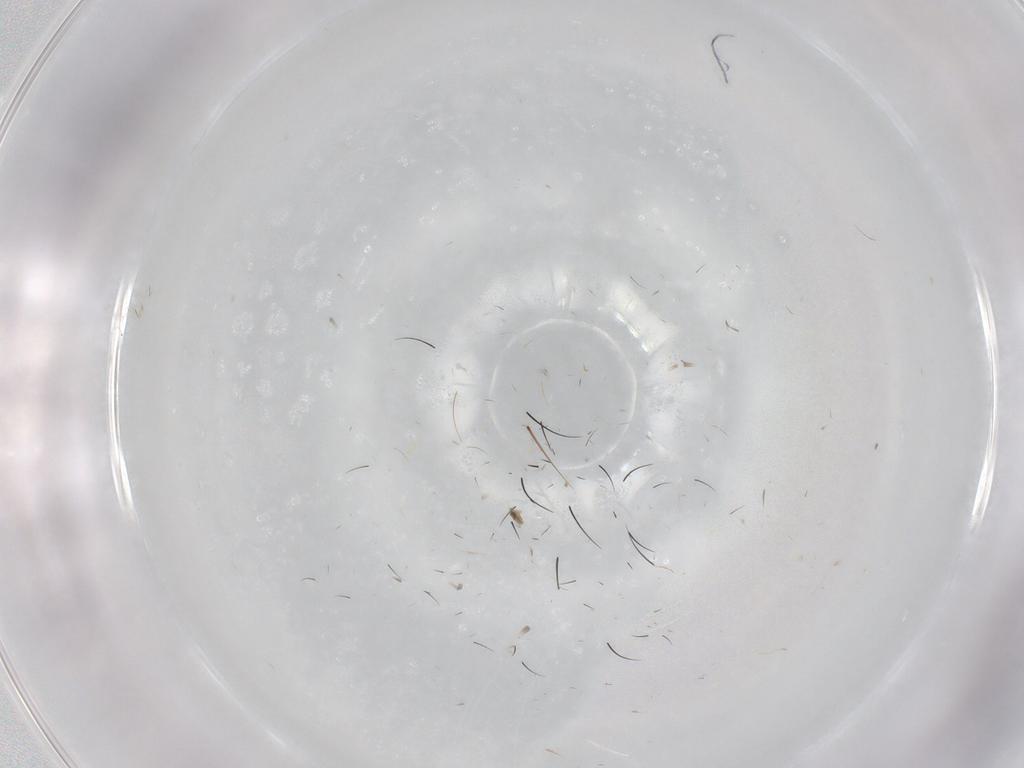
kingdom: Animalia
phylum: Arthropoda
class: Insecta
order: Diptera
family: Limoniidae
